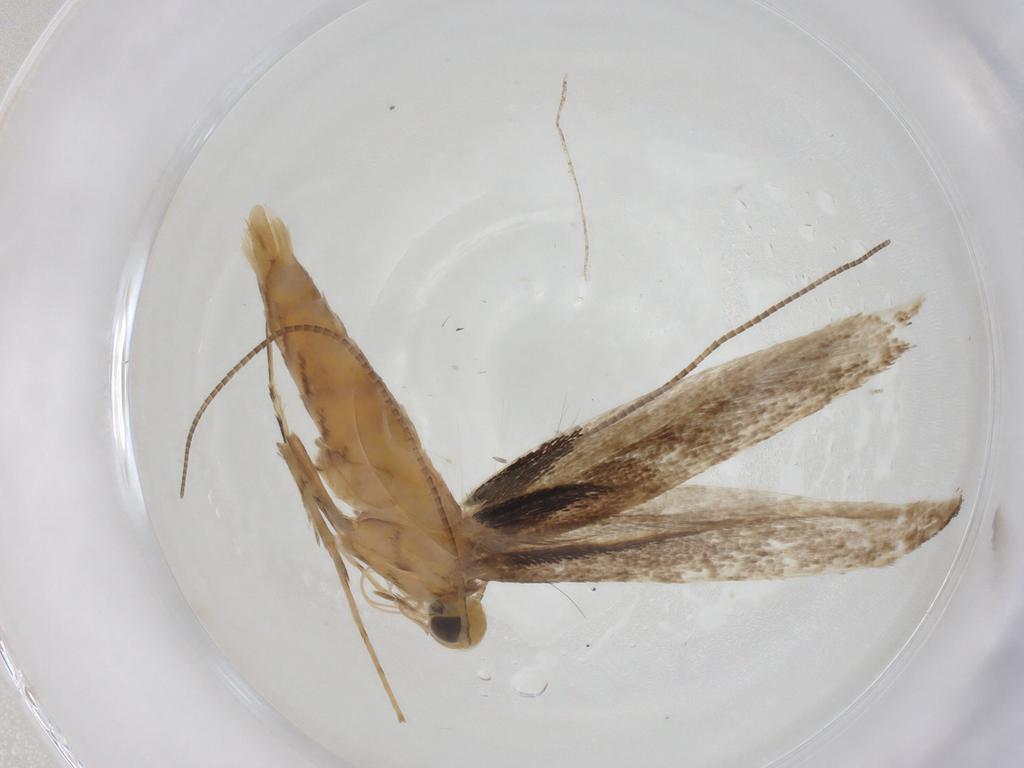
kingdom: Animalia
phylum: Arthropoda
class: Insecta
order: Lepidoptera
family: Gracillariidae
